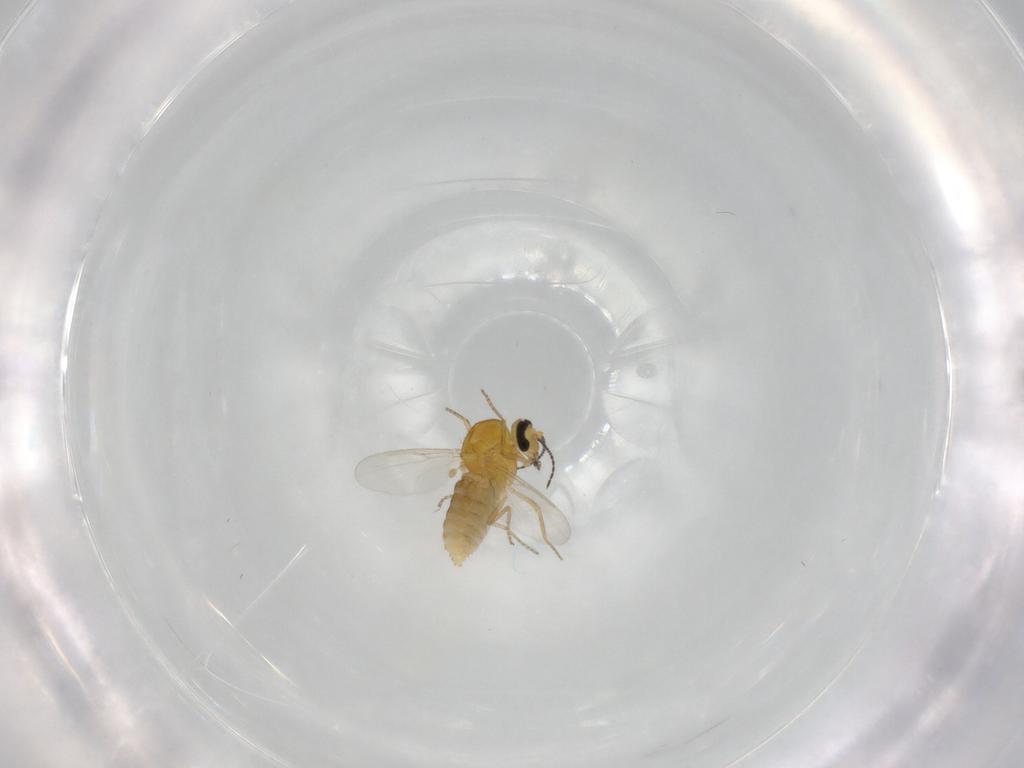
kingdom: Animalia
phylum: Arthropoda
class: Insecta
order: Diptera
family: Ceratopogonidae
